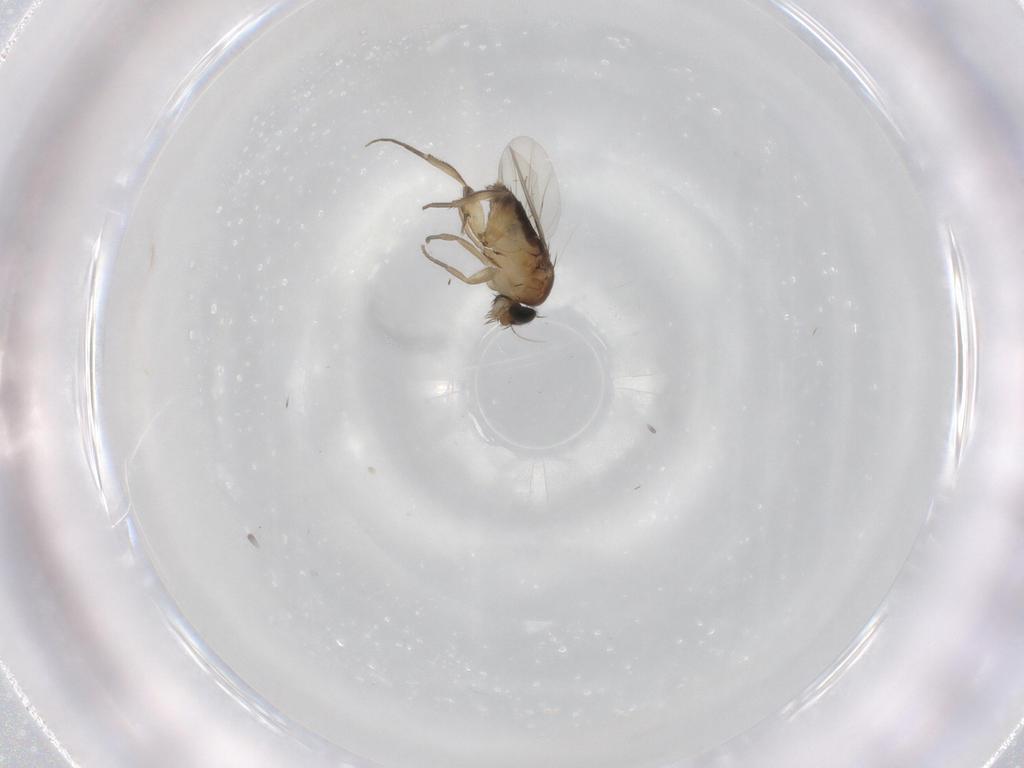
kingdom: Animalia
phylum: Arthropoda
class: Insecta
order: Diptera
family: Phoridae
